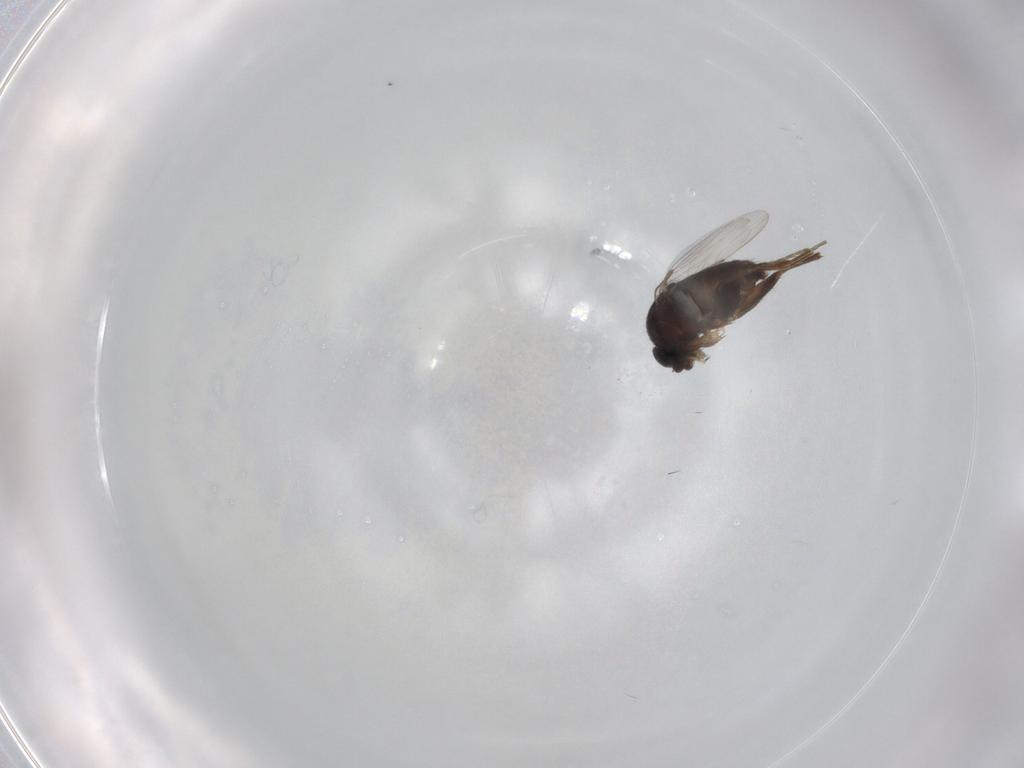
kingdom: Animalia
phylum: Arthropoda
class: Insecta
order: Diptera
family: Phoridae
